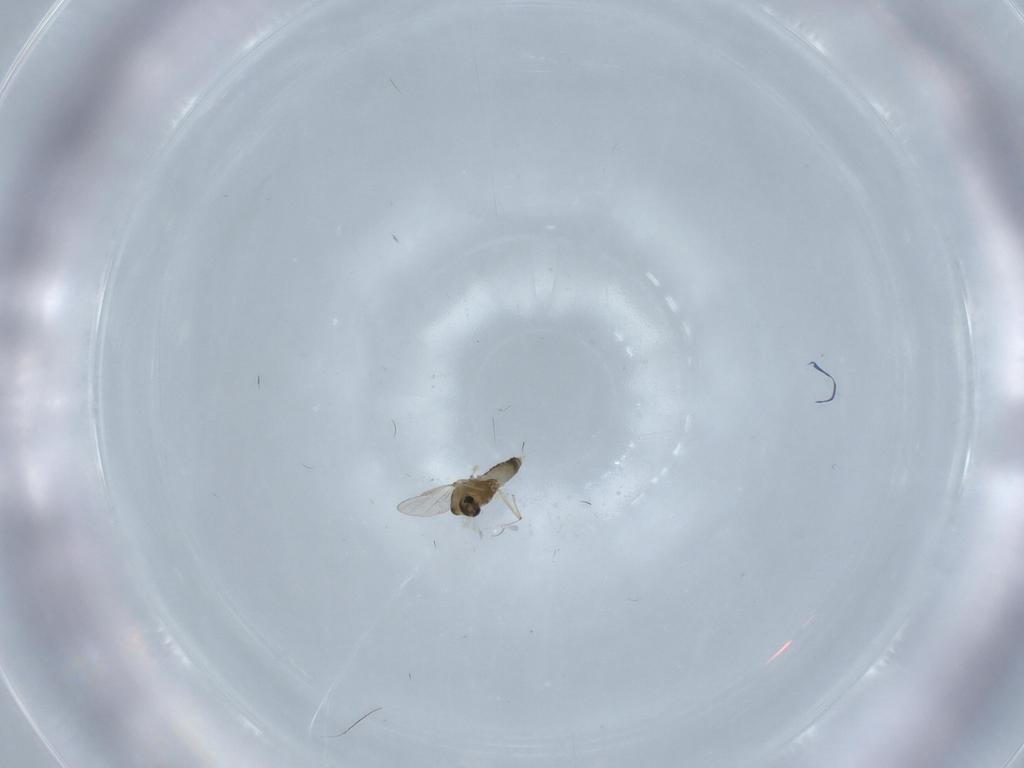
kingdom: Animalia
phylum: Arthropoda
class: Insecta
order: Diptera
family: Chironomidae
